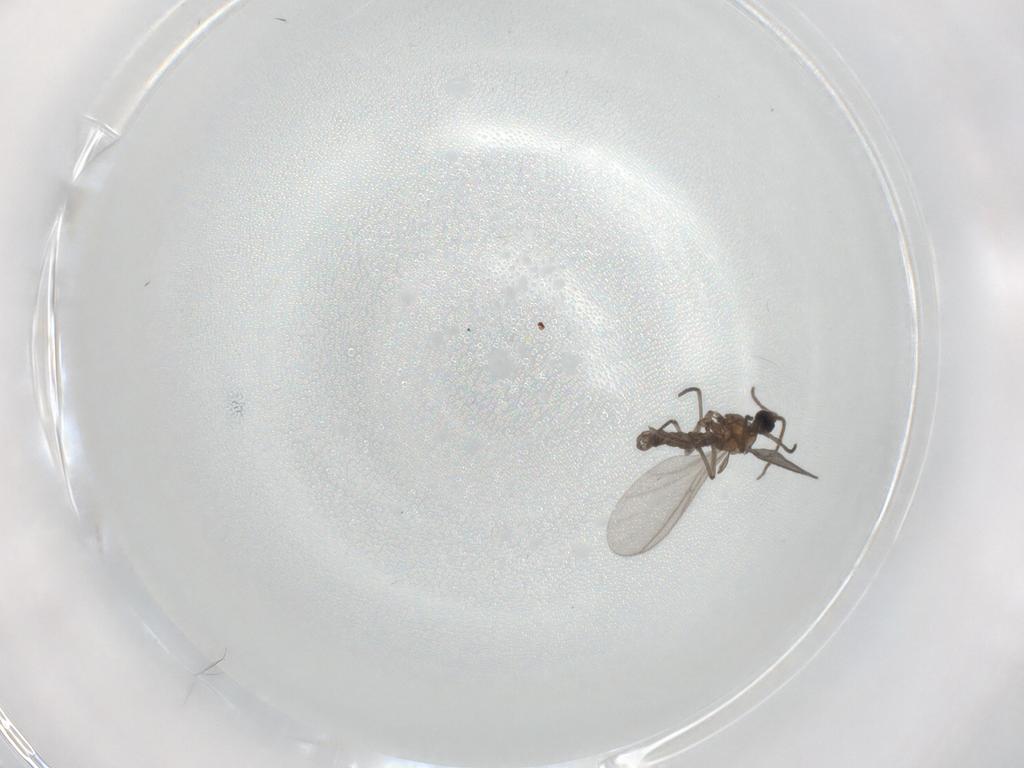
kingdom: Animalia
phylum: Arthropoda
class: Insecta
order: Diptera
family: Sciaridae
